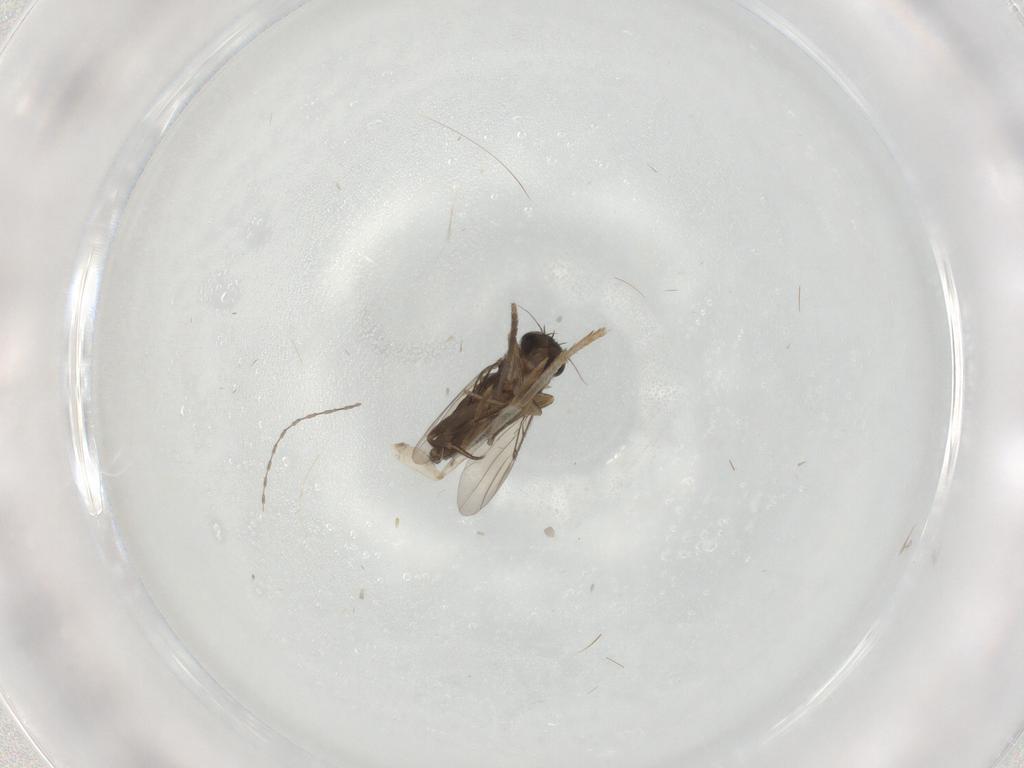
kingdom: Animalia
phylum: Arthropoda
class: Insecta
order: Diptera
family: Phoridae
